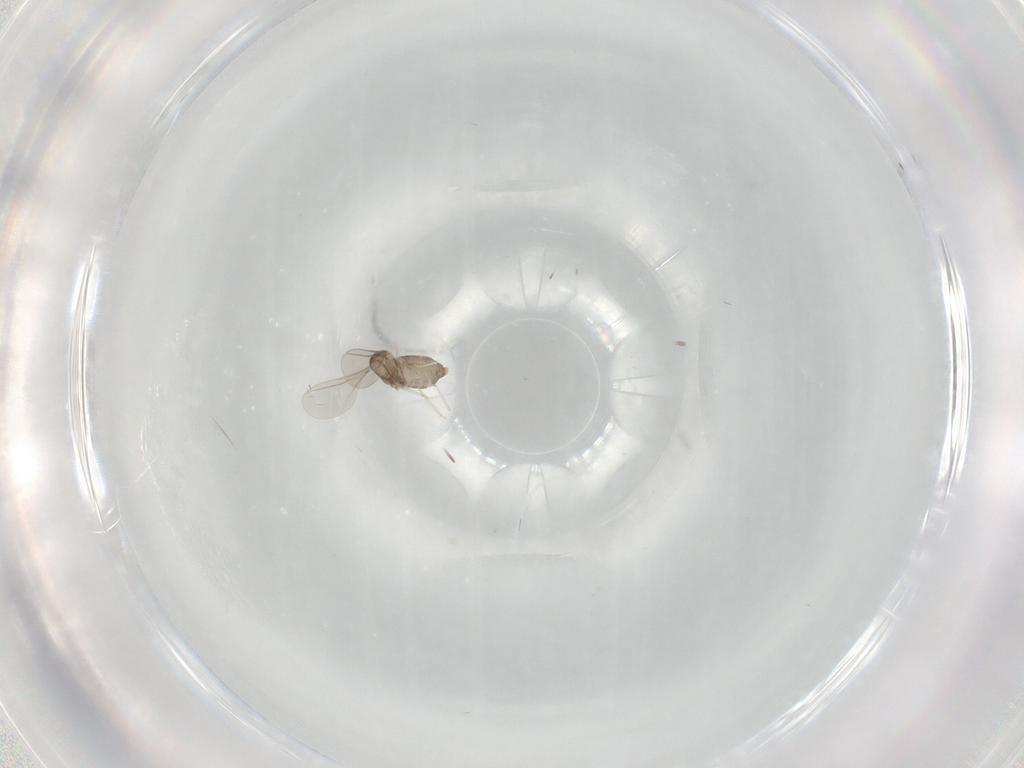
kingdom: Animalia
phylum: Arthropoda
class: Insecta
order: Diptera
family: Cecidomyiidae
